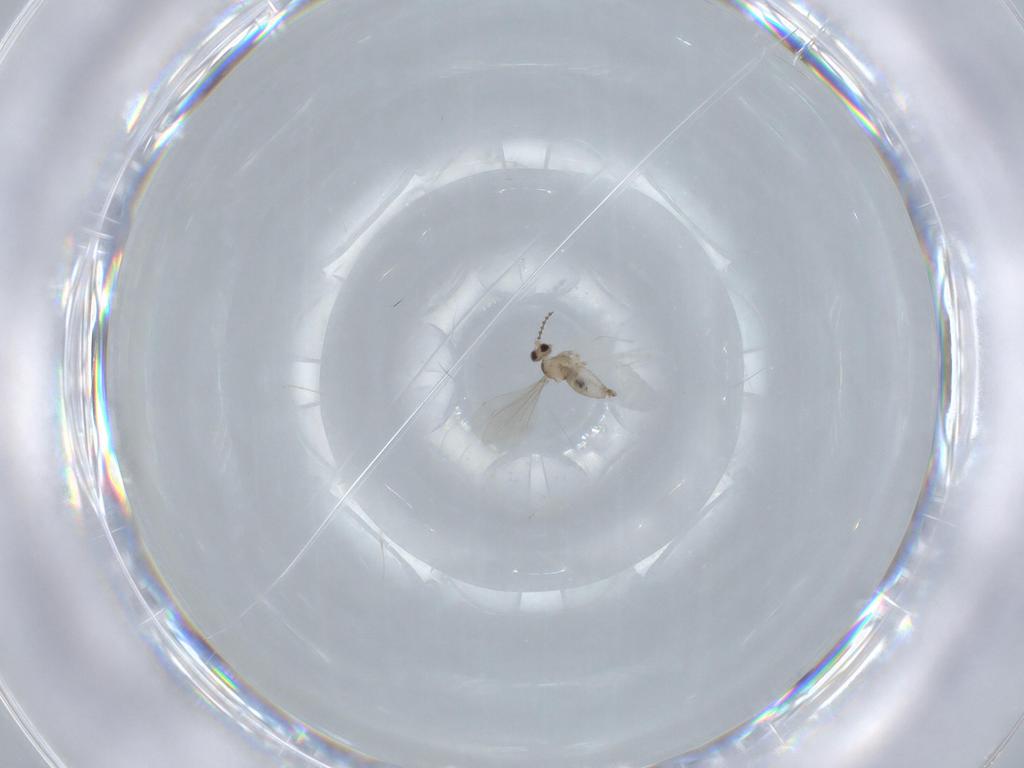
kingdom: Animalia
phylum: Arthropoda
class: Insecta
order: Diptera
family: Cecidomyiidae
